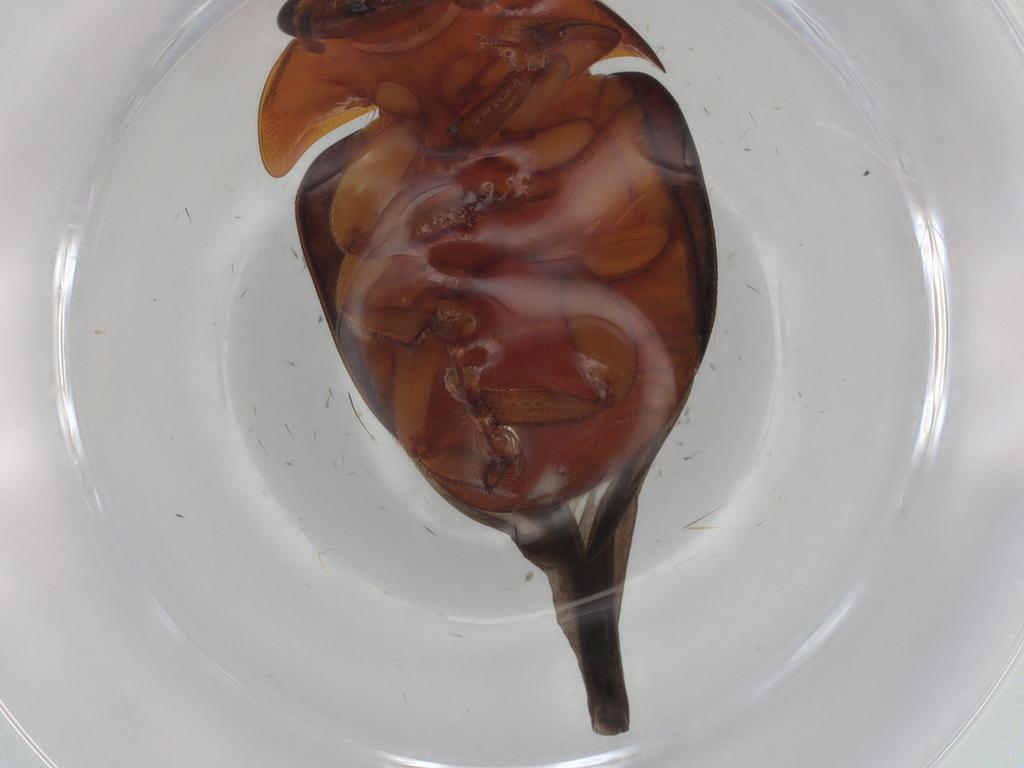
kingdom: Animalia
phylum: Arthropoda
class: Insecta
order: Coleoptera
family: Nitidulidae
